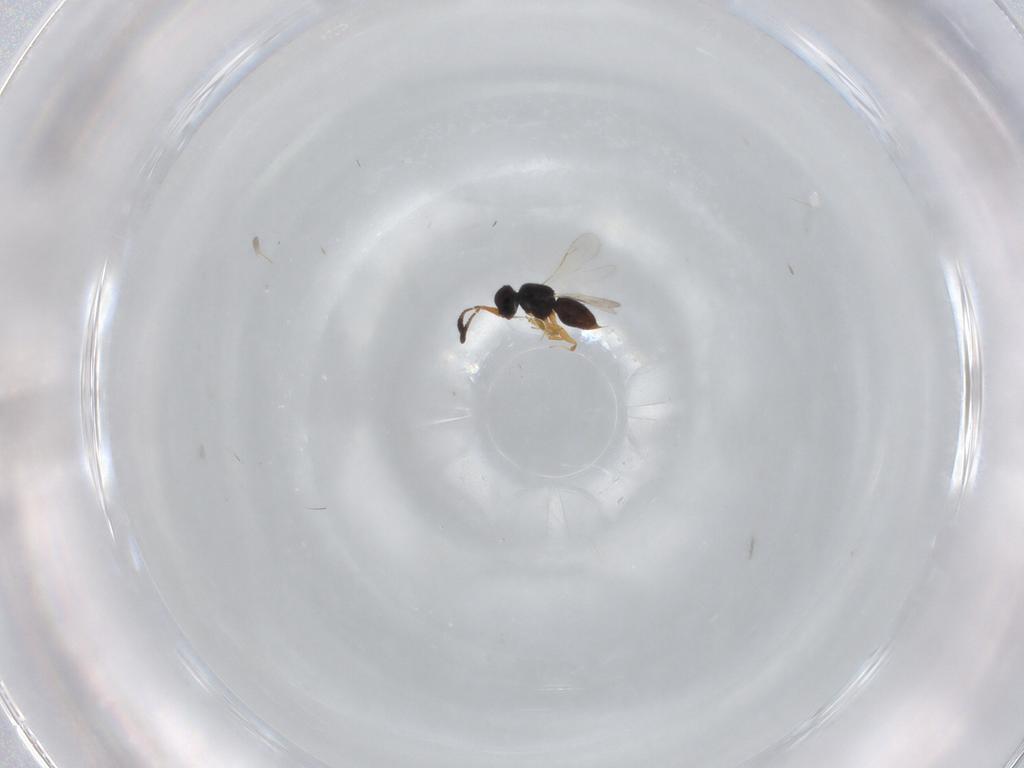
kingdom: Animalia
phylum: Arthropoda
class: Insecta
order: Hymenoptera
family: Ceraphronidae
